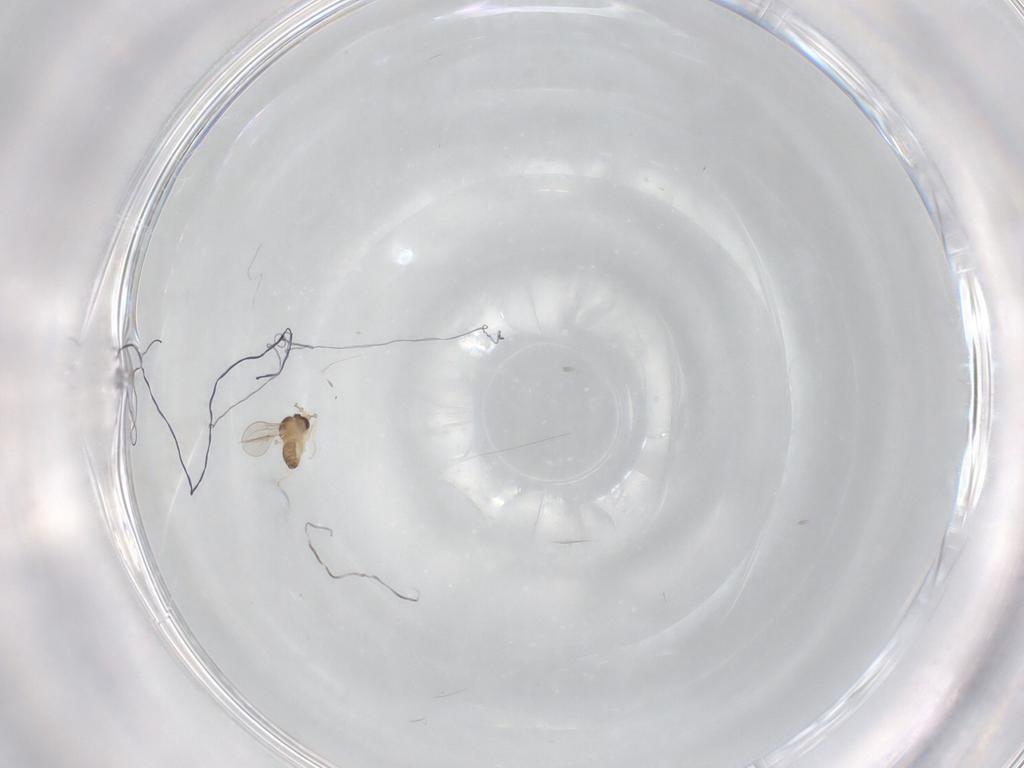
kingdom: Animalia
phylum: Arthropoda
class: Insecta
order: Diptera
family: Cecidomyiidae
